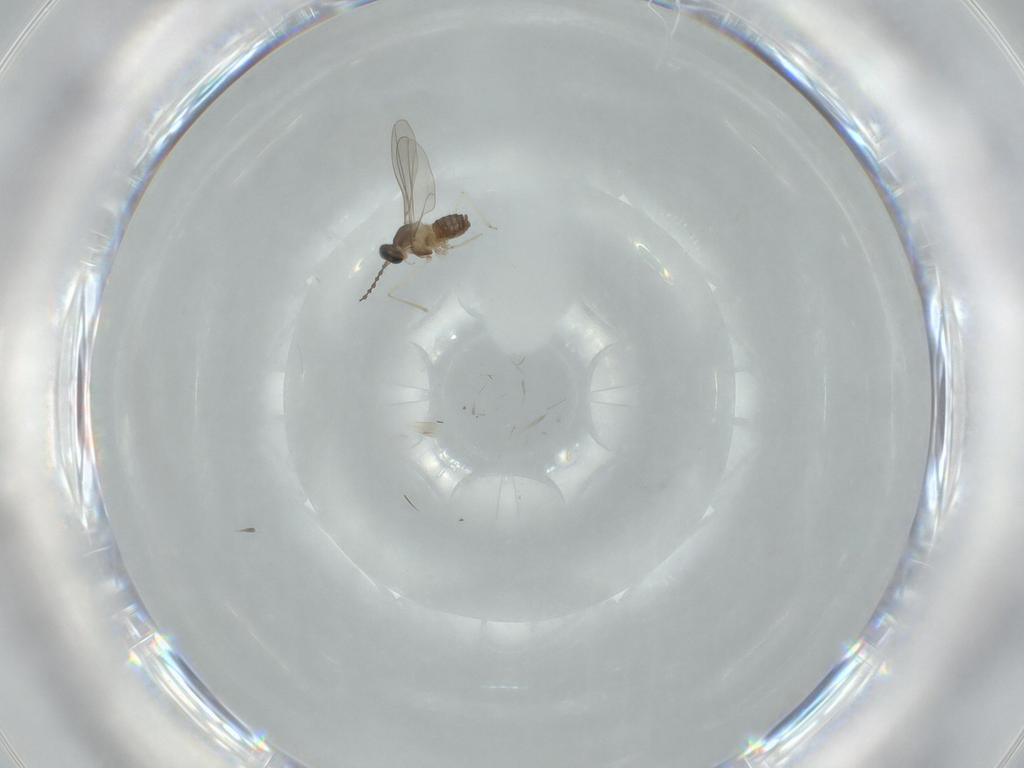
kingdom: Animalia
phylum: Arthropoda
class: Insecta
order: Diptera
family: Cecidomyiidae
